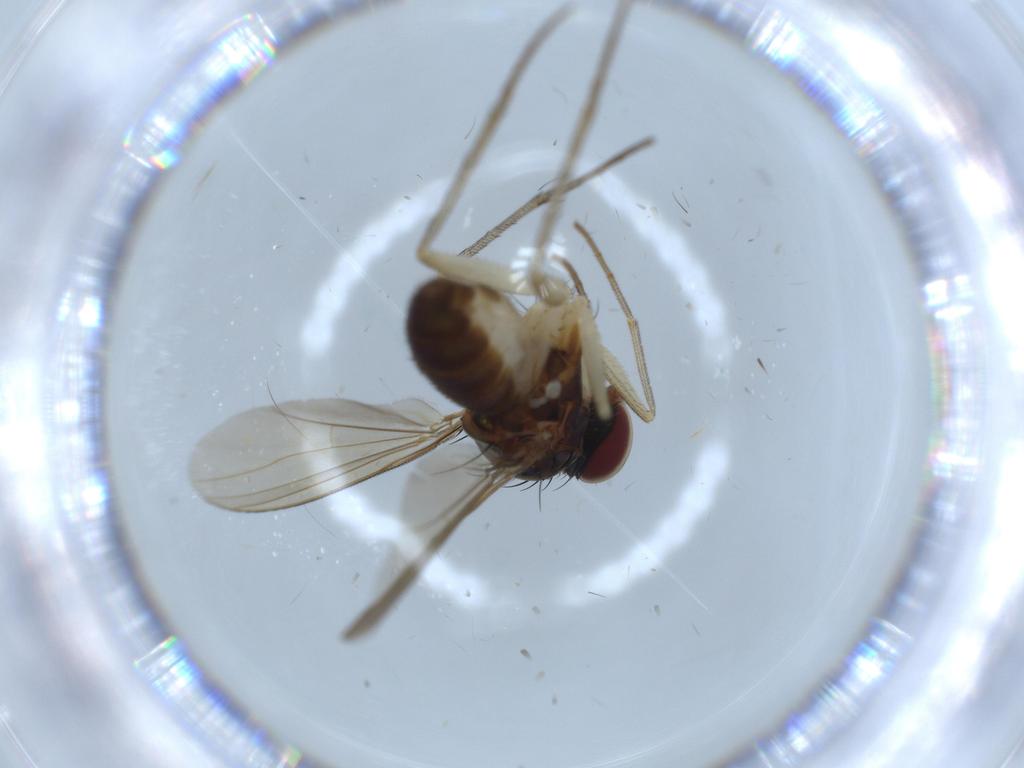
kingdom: Animalia
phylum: Arthropoda
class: Insecta
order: Diptera
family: Dolichopodidae
